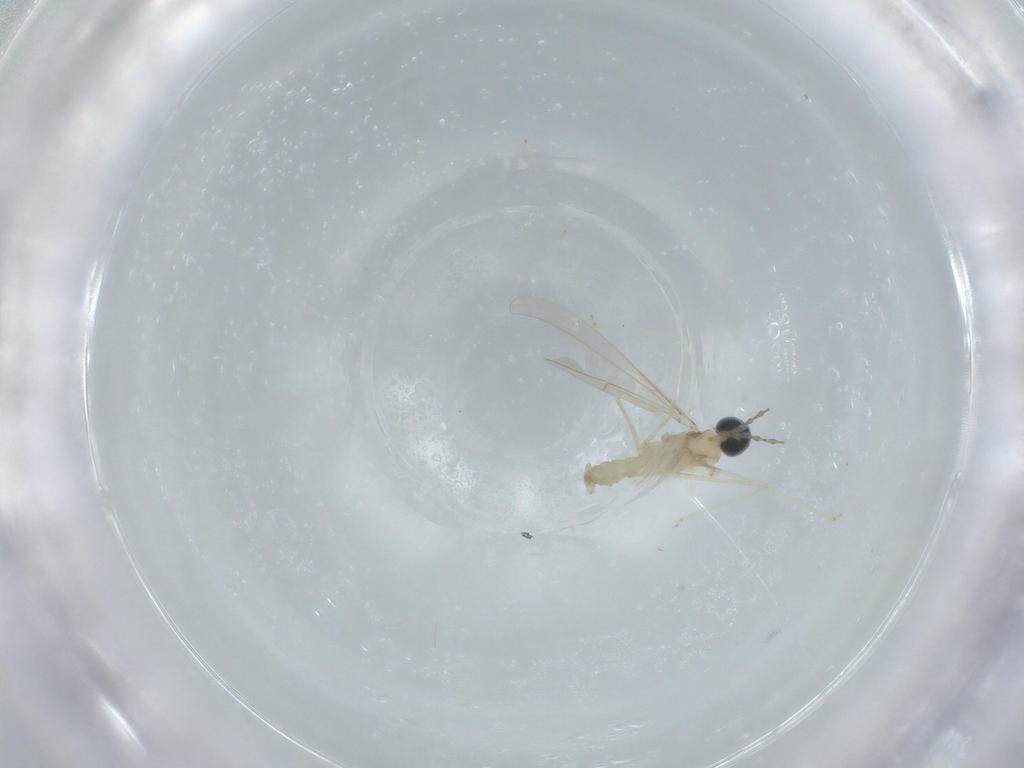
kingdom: Animalia
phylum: Arthropoda
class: Insecta
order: Diptera
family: Cecidomyiidae
